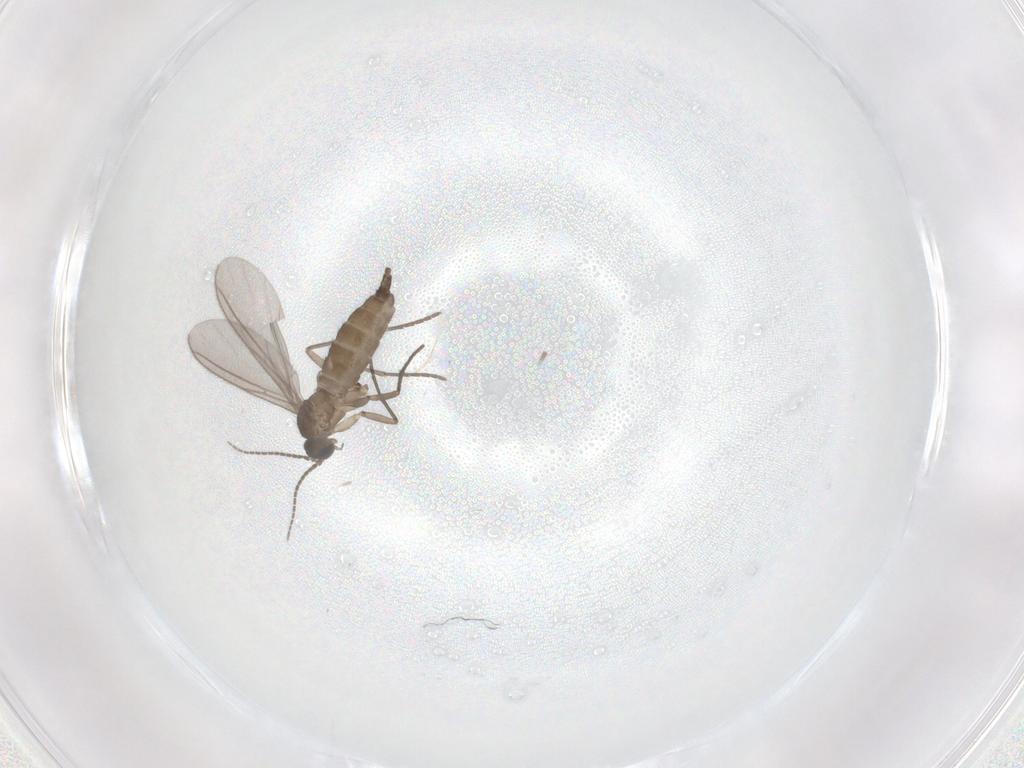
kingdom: Animalia
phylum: Arthropoda
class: Insecta
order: Diptera
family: Sciaridae
